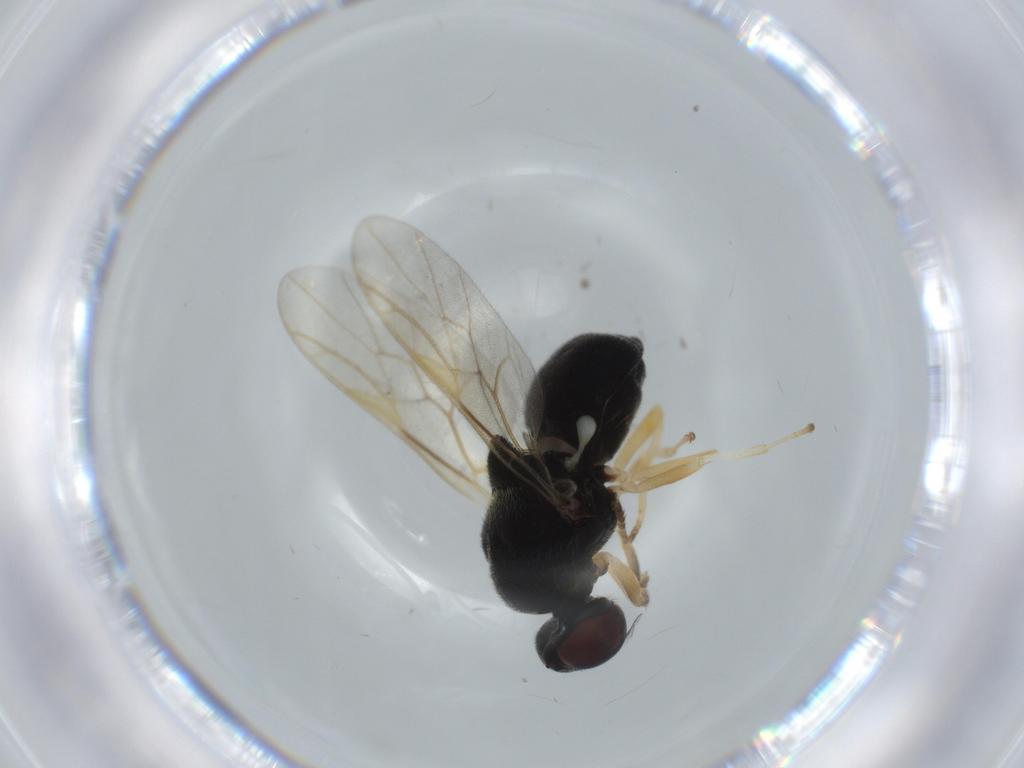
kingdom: Animalia
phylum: Arthropoda
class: Insecta
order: Diptera
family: Stratiomyidae
